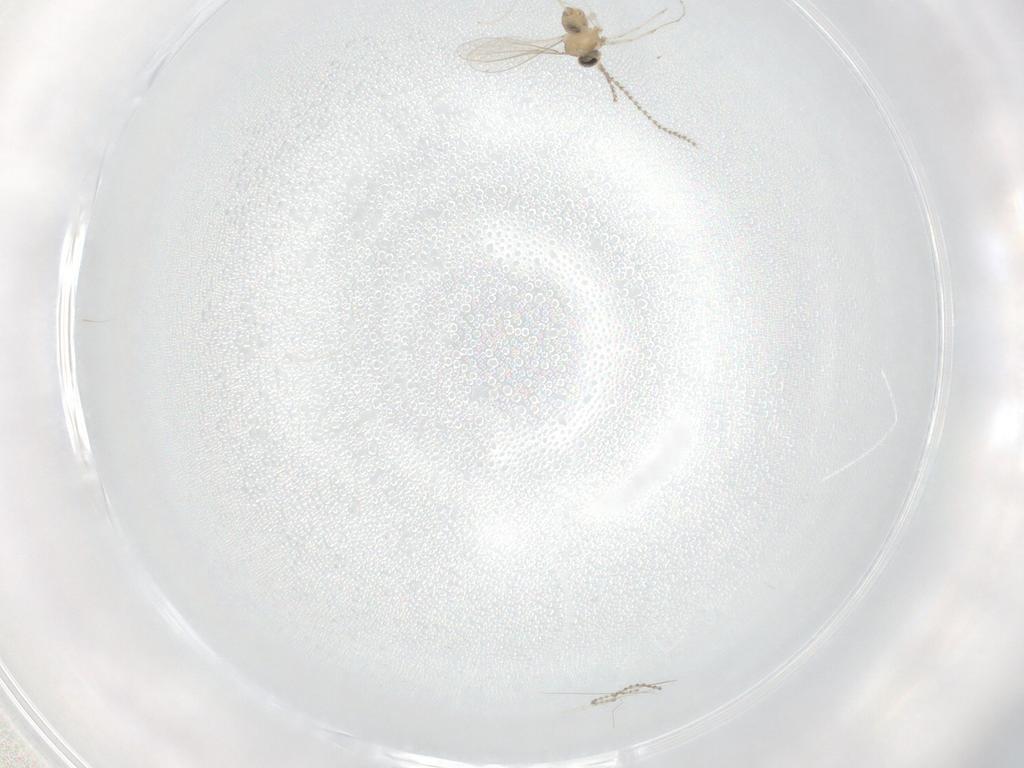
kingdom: Animalia
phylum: Arthropoda
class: Insecta
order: Diptera
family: Cecidomyiidae
